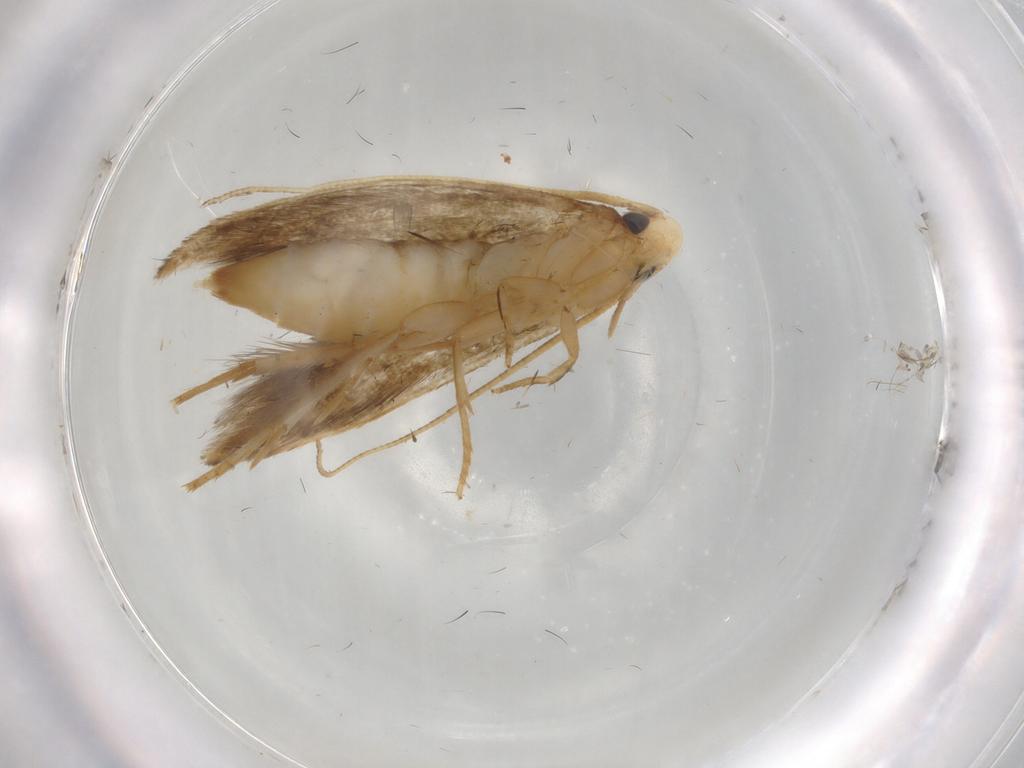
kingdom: Animalia
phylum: Arthropoda
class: Insecta
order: Lepidoptera
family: Tineidae
